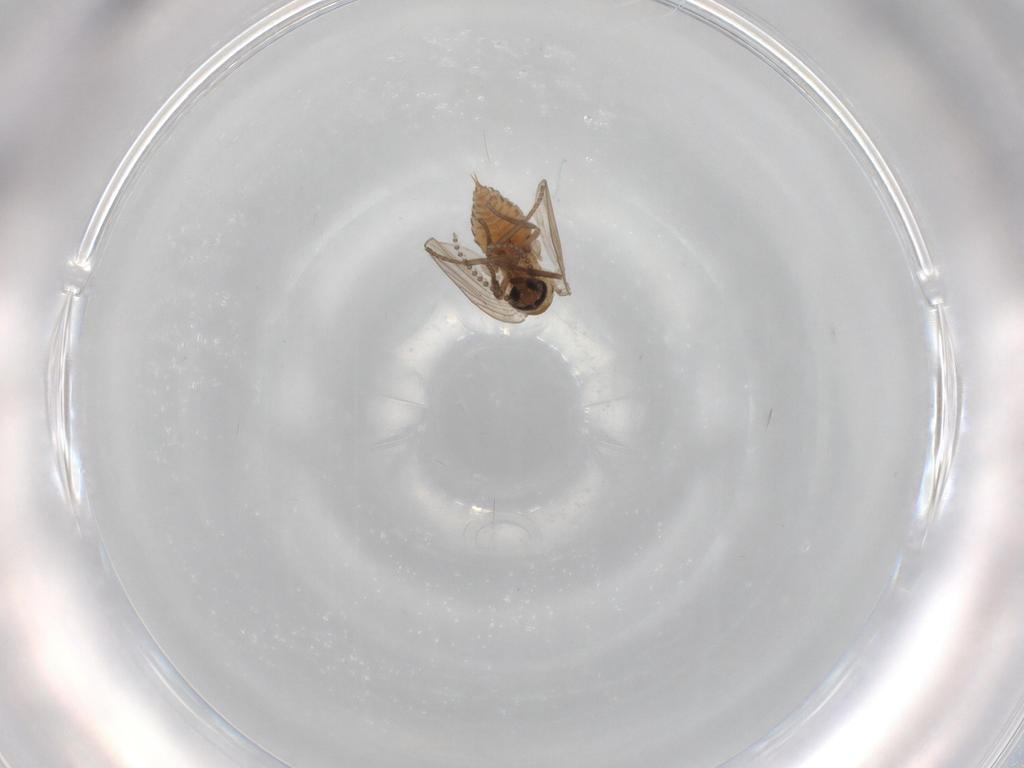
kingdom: Animalia
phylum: Arthropoda
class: Insecta
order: Diptera
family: Psychodidae
